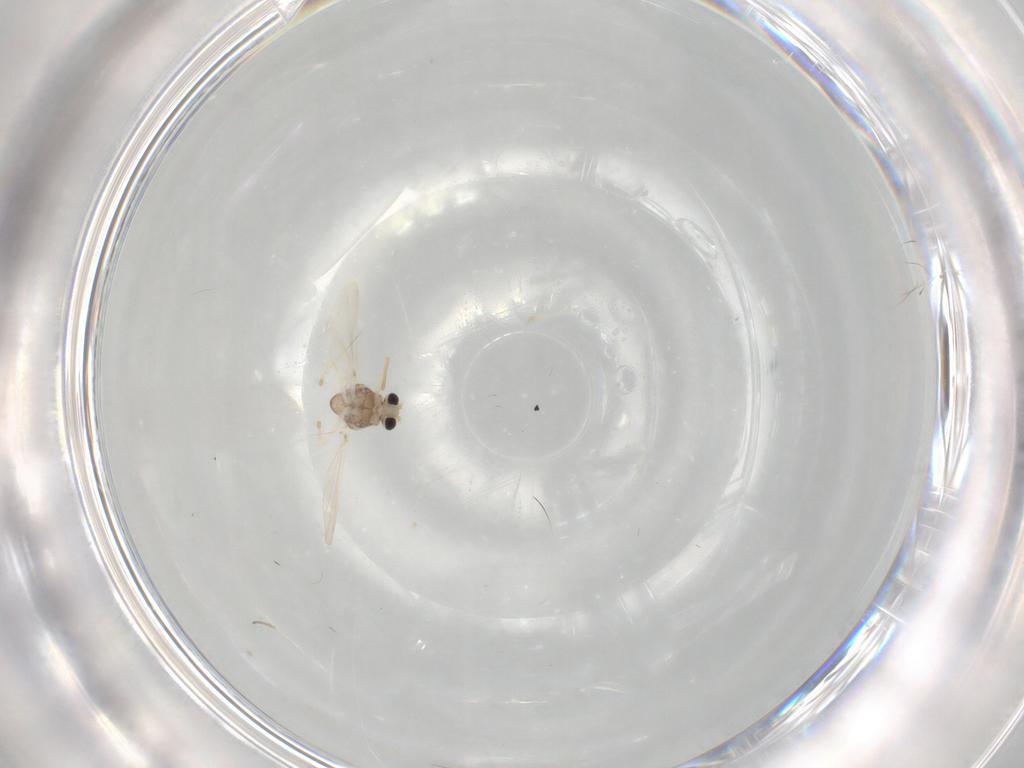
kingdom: Animalia
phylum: Arthropoda
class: Insecta
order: Diptera
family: Chironomidae
